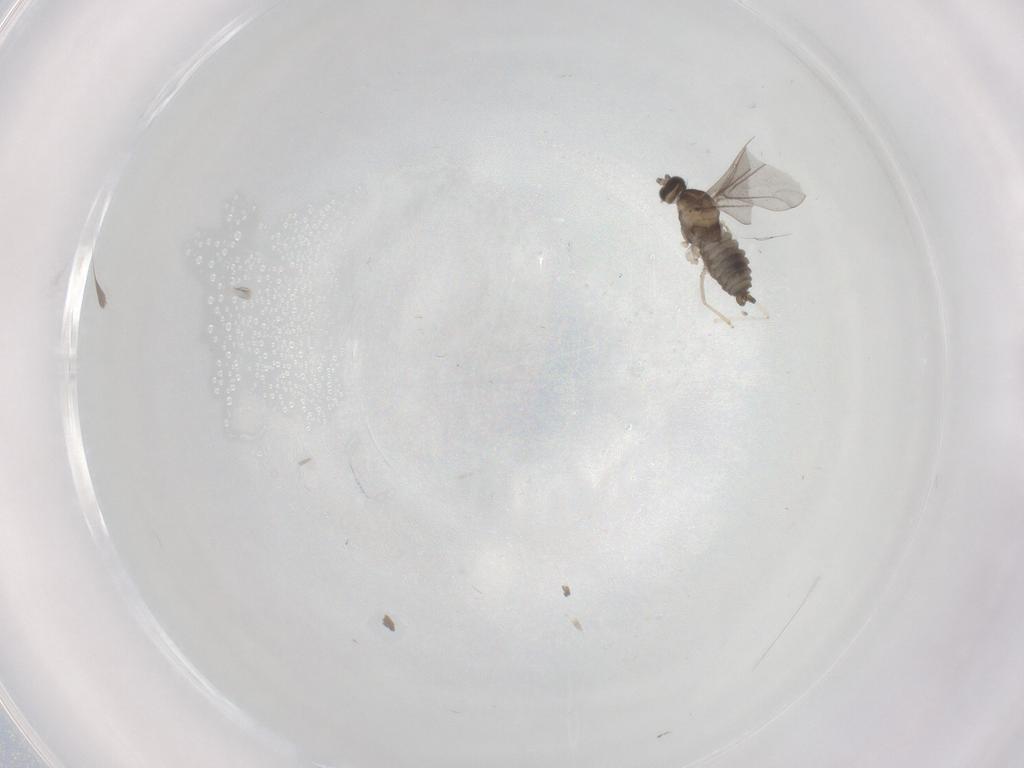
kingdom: Animalia
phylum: Arthropoda
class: Insecta
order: Diptera
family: Cecidomyiidae
